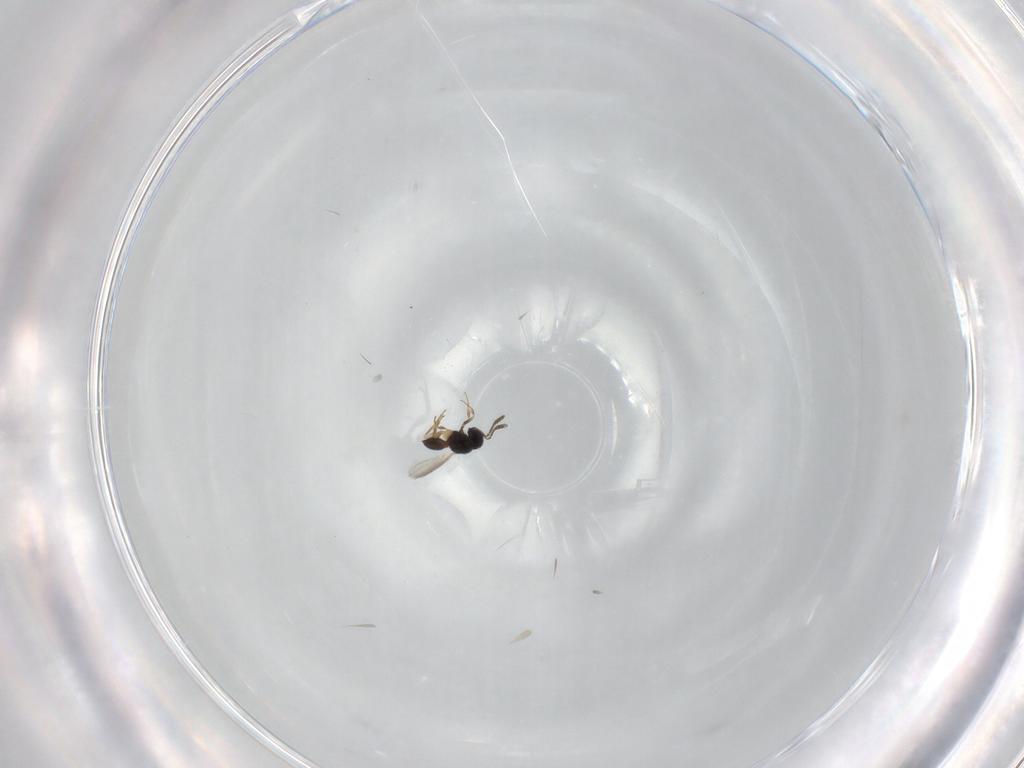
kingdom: Animalia
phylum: Arthropoda
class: Insecta
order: Hymenoptera
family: Scelionidae
